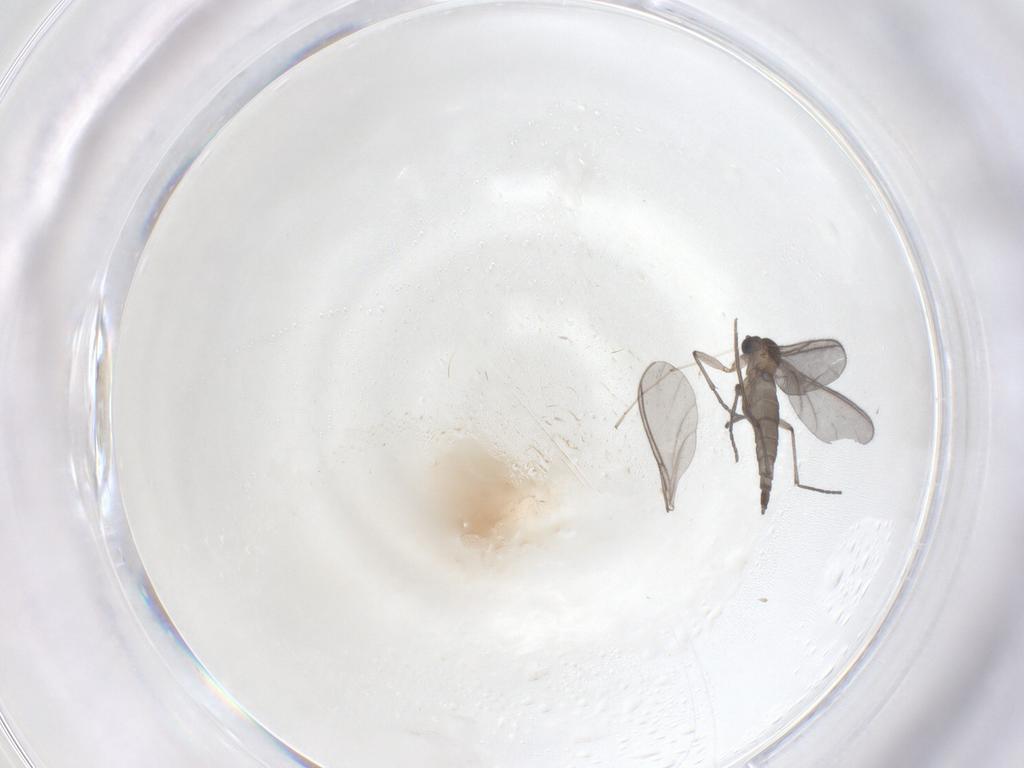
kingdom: Animalia
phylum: Arthropoda
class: Insecta
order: Diptera
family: Sciaridae
